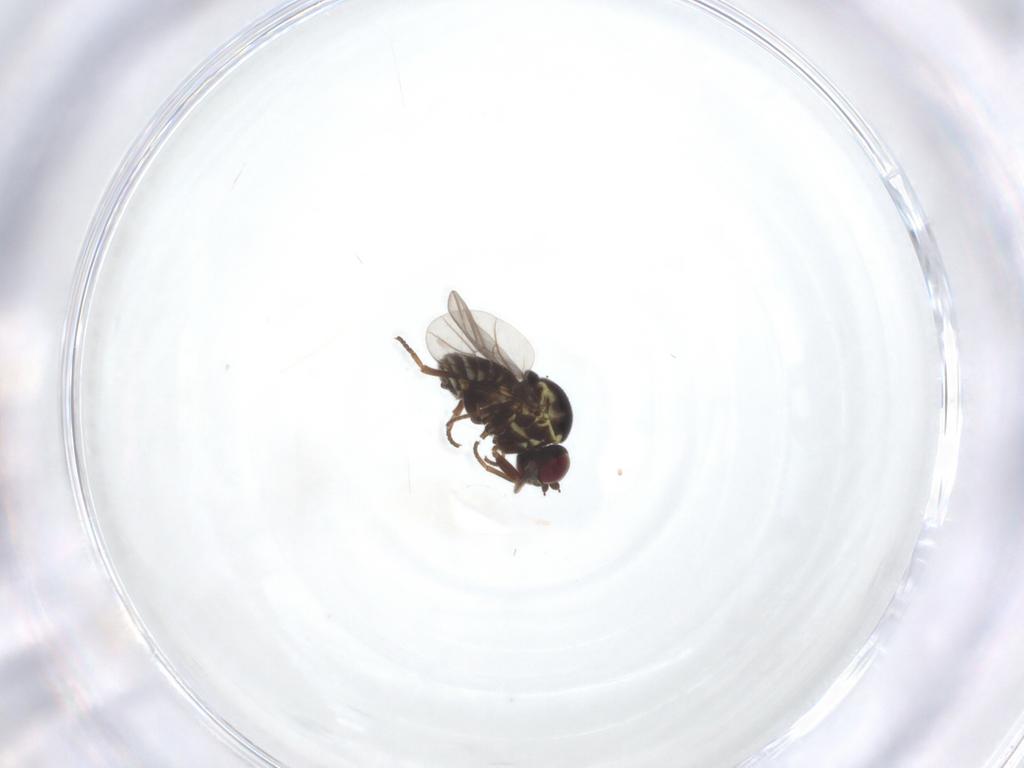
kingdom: Animalia
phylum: Arthropoda
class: Insecta
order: Diptera
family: Bombyliidae
